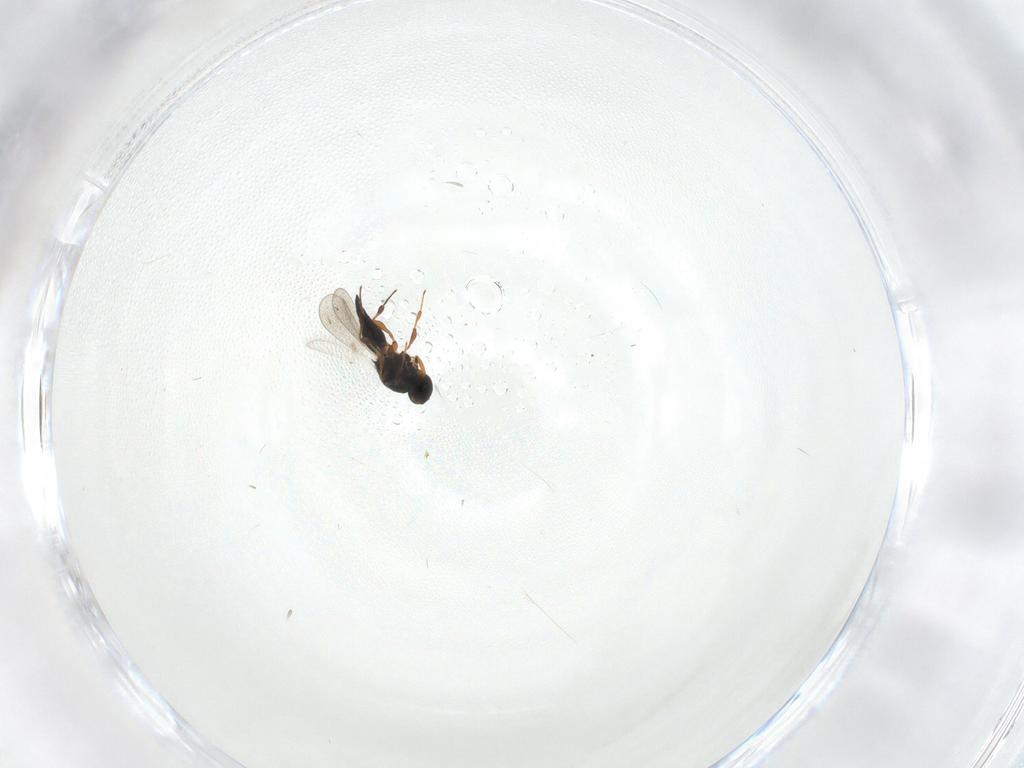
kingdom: Animalia
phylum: Arthropoda
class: Insecta
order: Hymenoptera
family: Platygastridae
